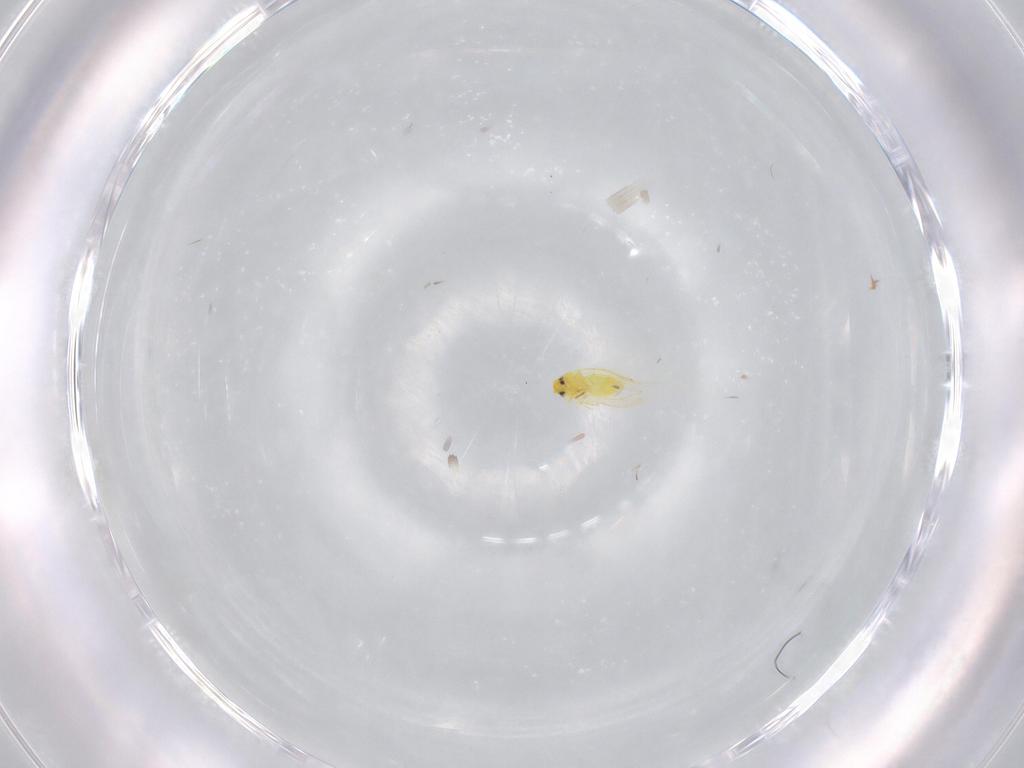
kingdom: Animalia
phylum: Arthropoda
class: Insecta
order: Hemiptera
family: Aleyrodidae
